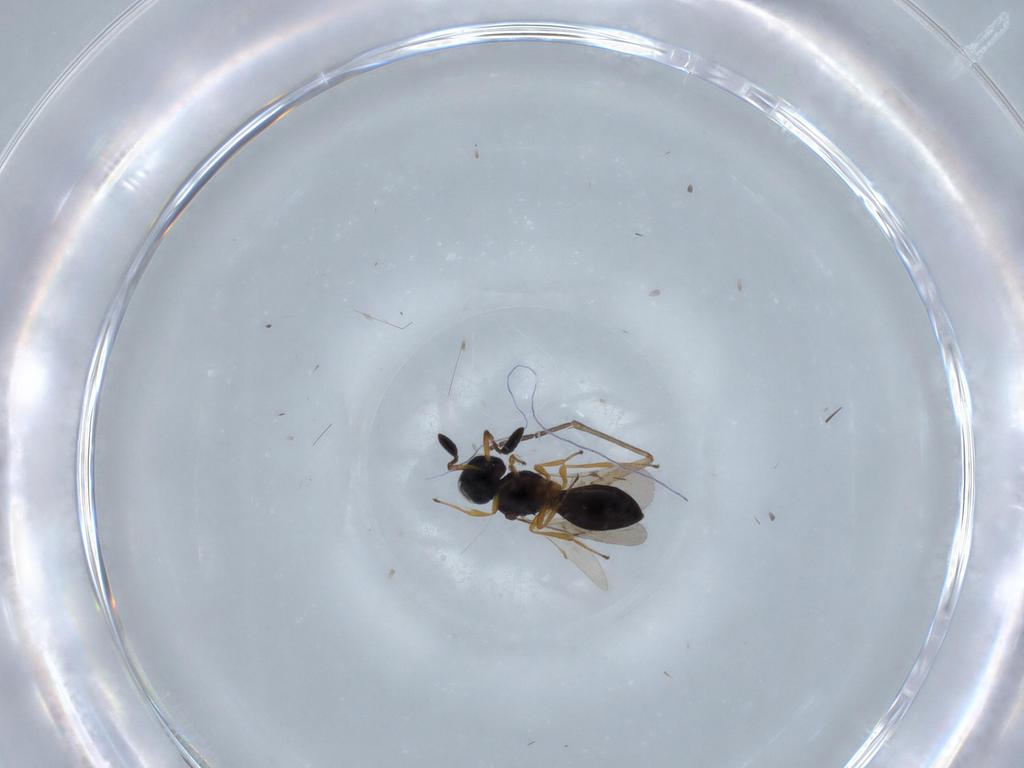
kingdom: Animalia
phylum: Arthropoda
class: Insecta
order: Hymenoptera
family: Scelionidae
